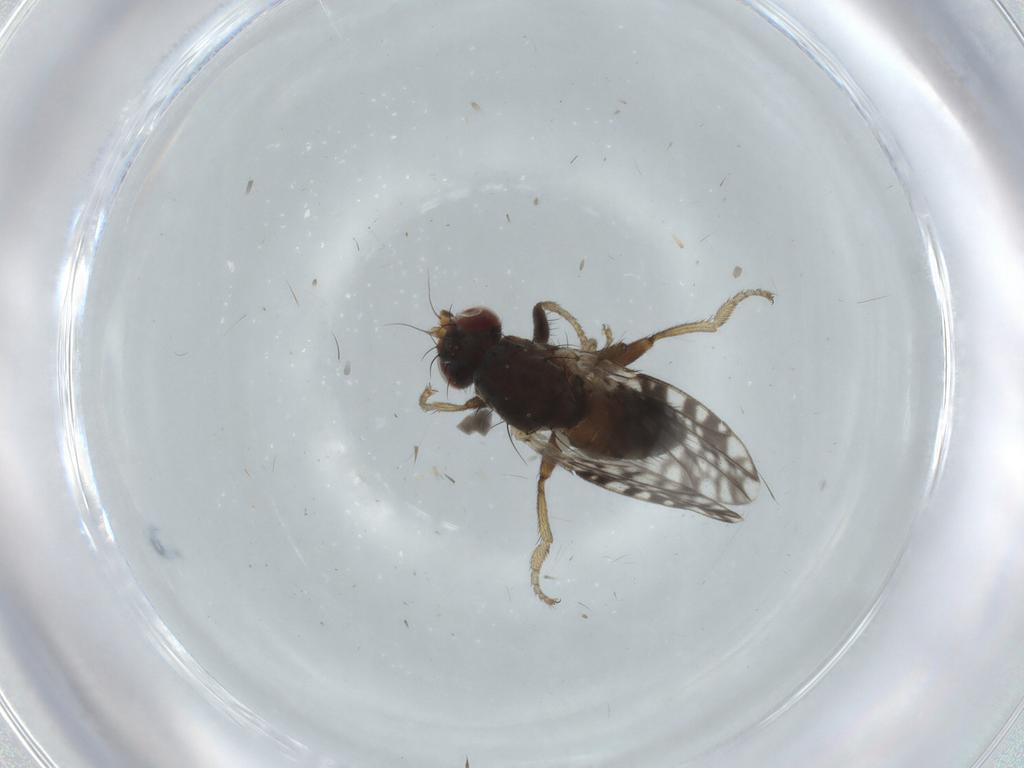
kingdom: Animalia
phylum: Arthropoda
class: Insecta
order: Diptera
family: Tephritidae
